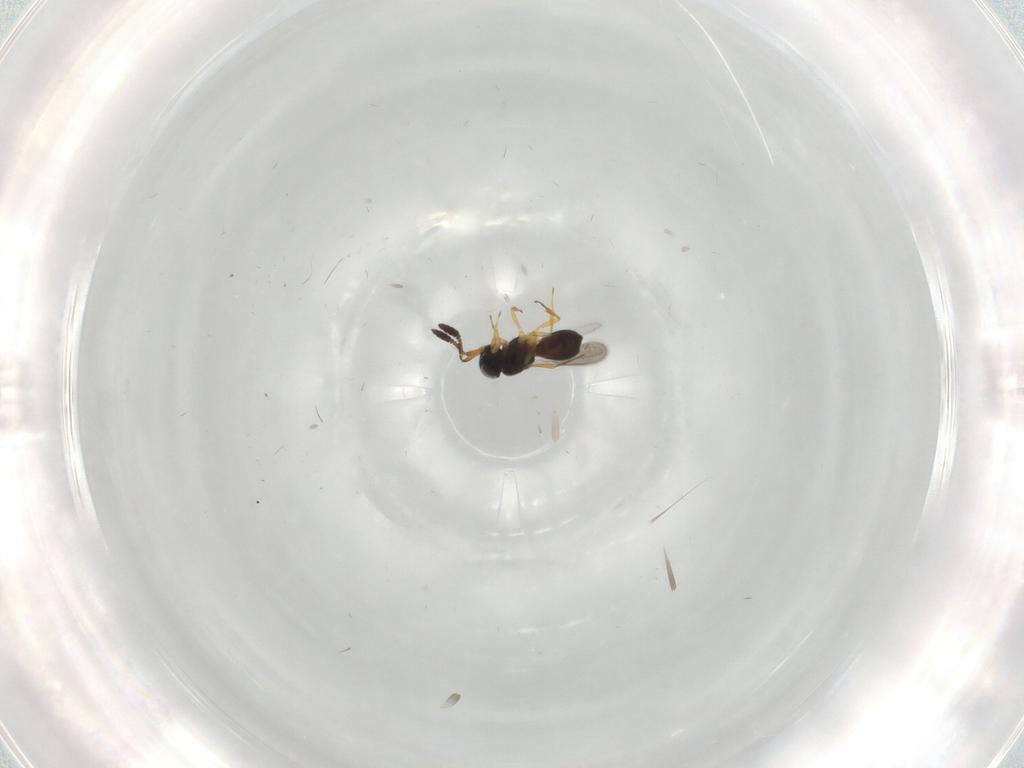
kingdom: Animalia
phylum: Arthropoda
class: Insecta
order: Hymenoptera
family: Scelionidae
